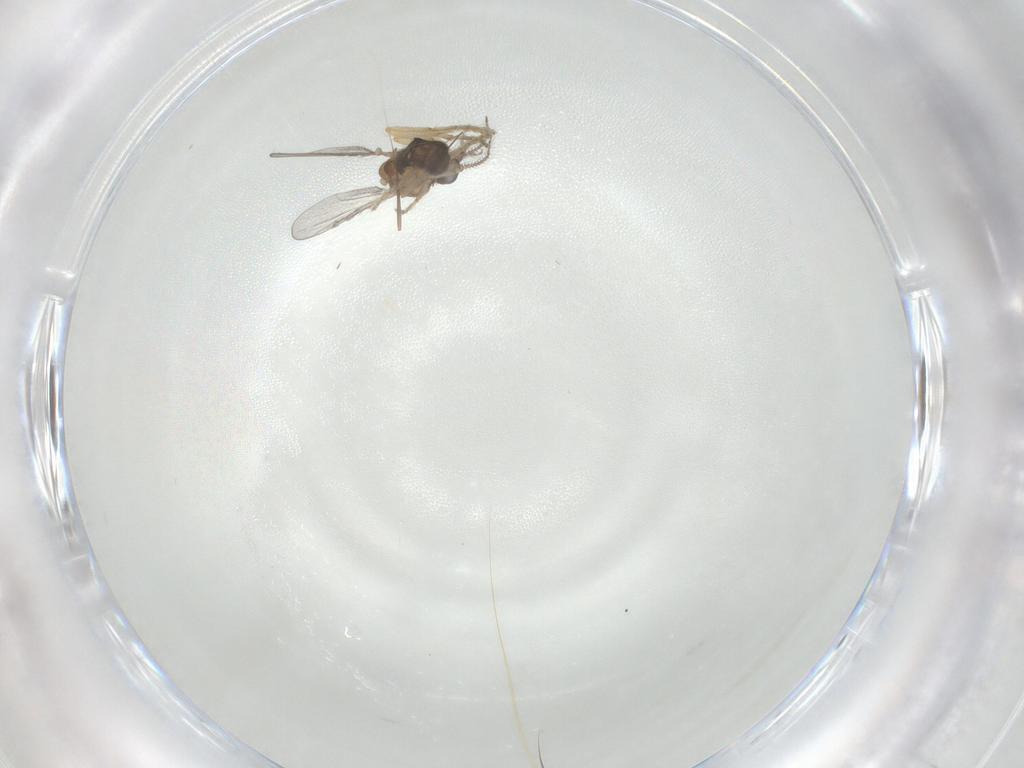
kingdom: Animalia
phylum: Arthropoda
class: Insecta
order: Diptera
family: Ceratopogonidae
